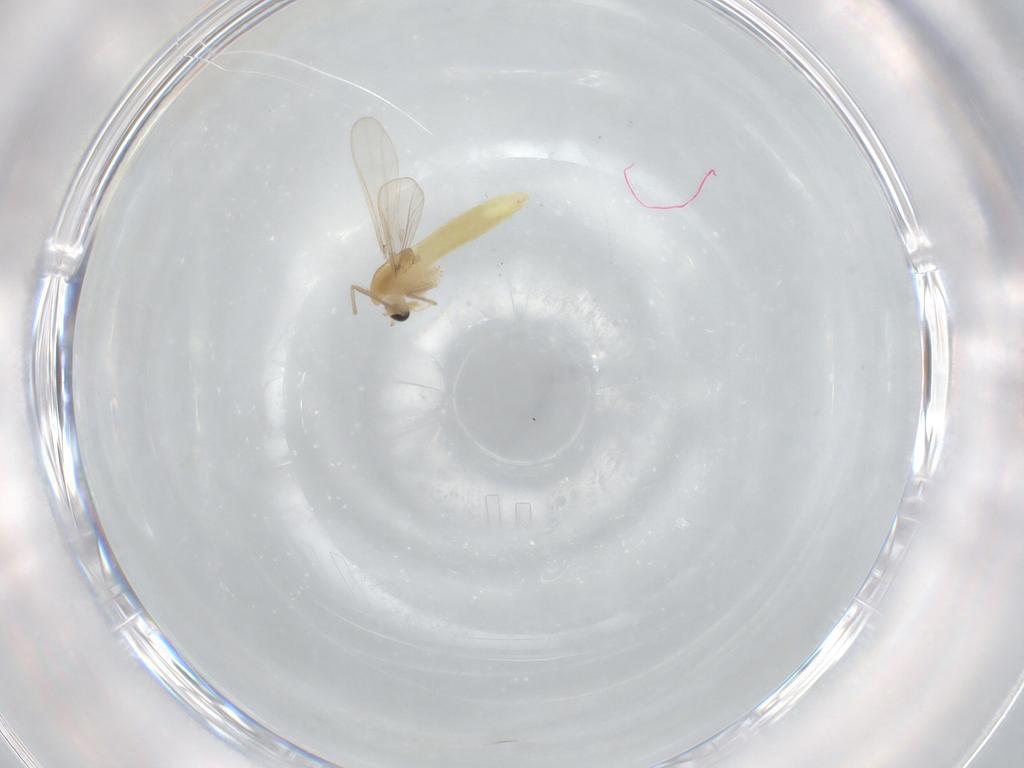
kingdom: Animalia
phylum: Arthropoda
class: Insecta
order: Diptera
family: Chironomidae
